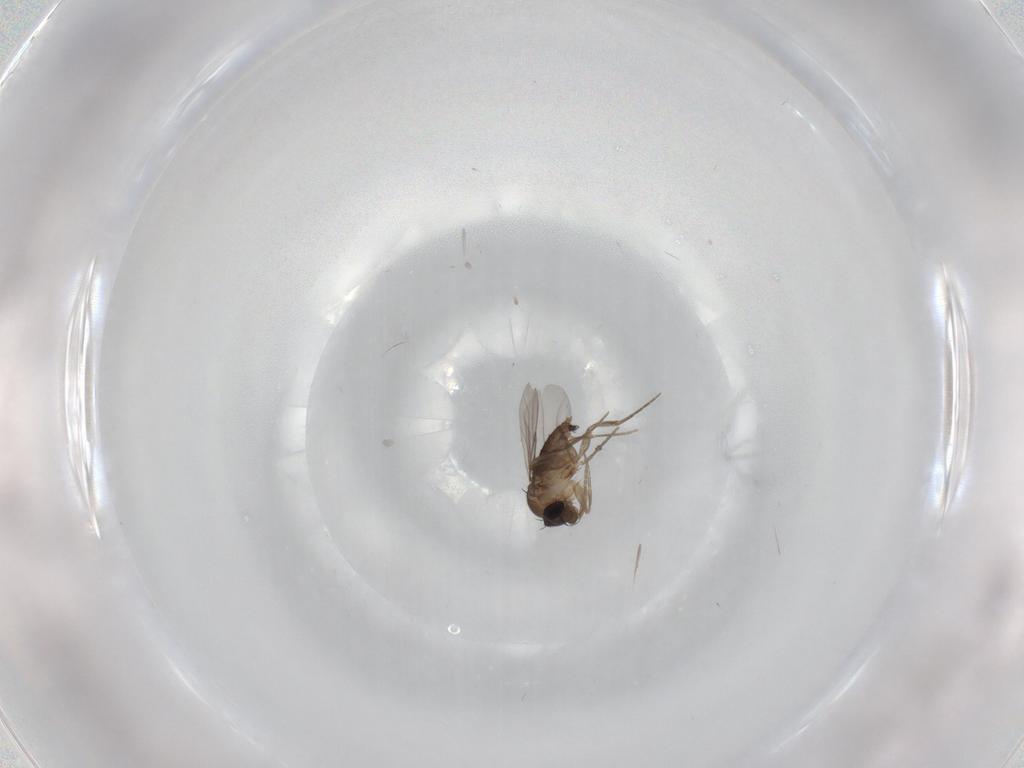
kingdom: Animalia
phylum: Arthropoda
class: Insecta
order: Diptera
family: Phoridae
